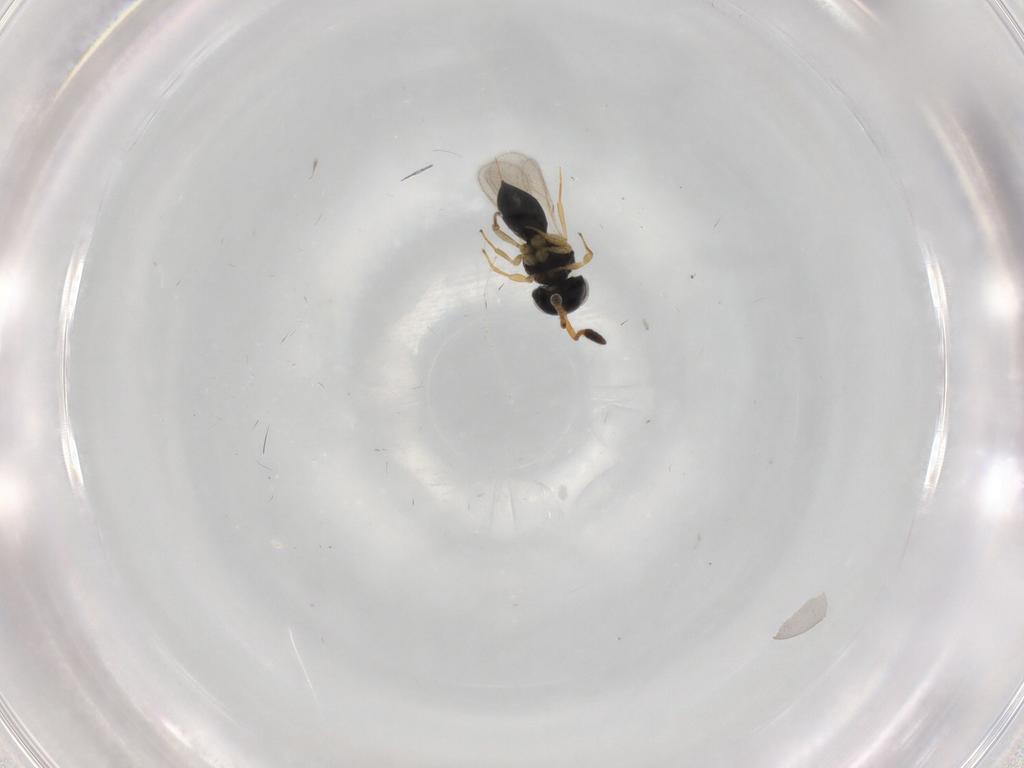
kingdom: Animalia
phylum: Arthropoda
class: Insecta
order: Hymenoptera
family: Scelionidae
